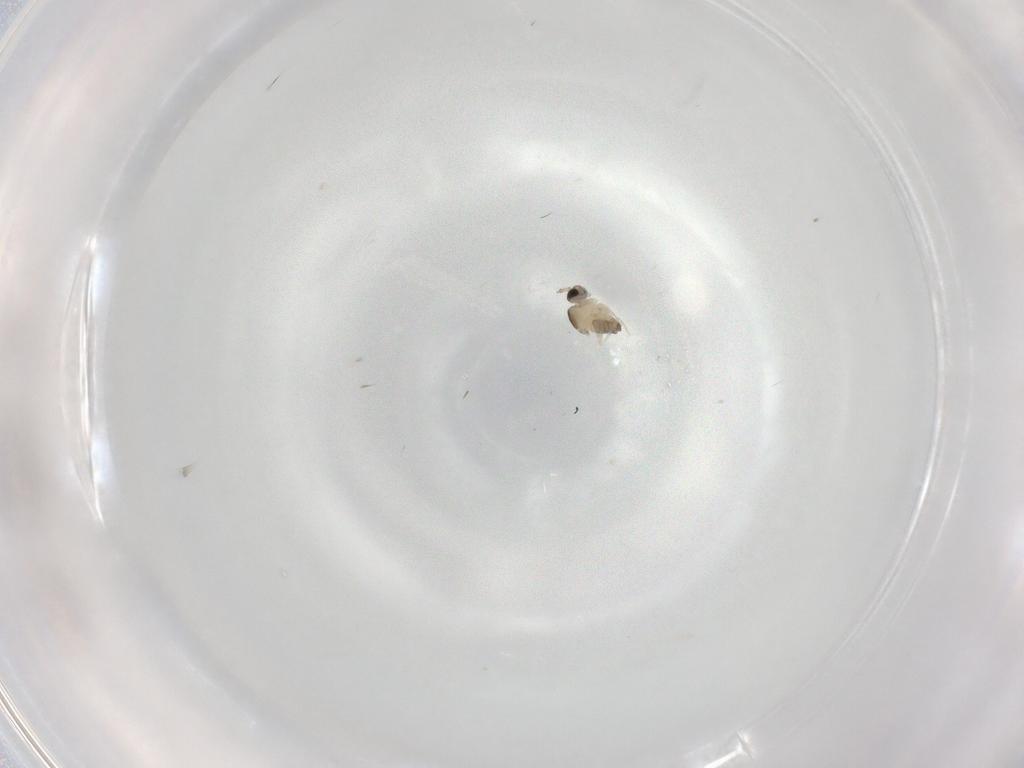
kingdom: Animalia
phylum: Arthropoda
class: Insecta
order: Diptera
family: Cecidomyiidae
